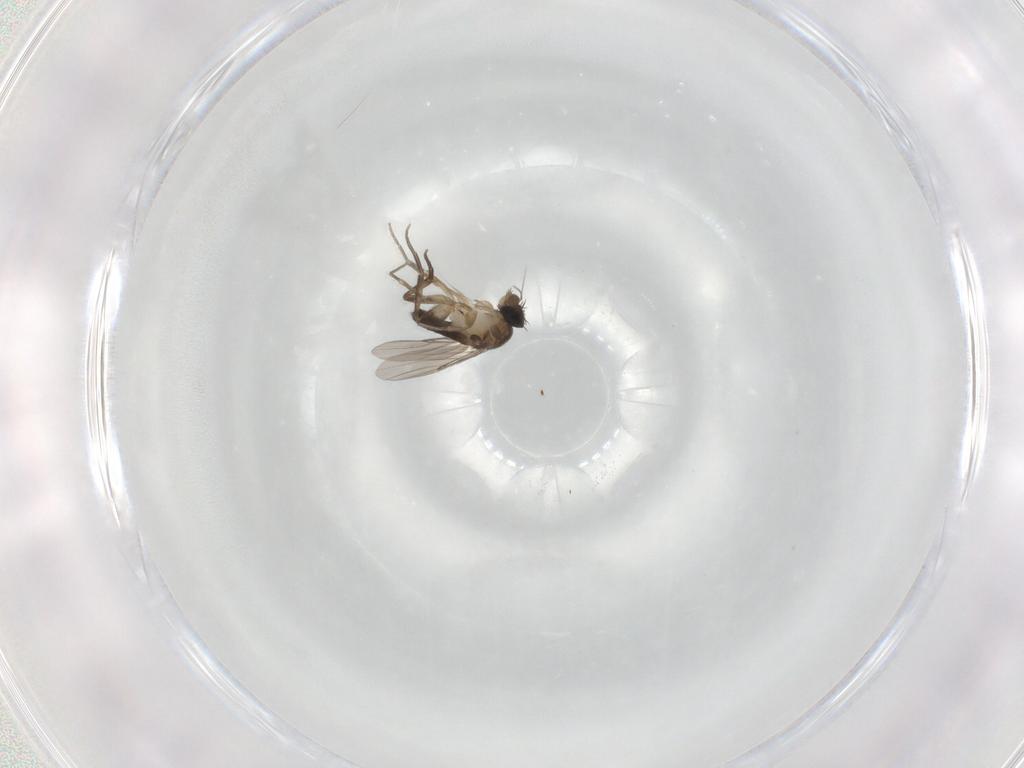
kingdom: Animalia
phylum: Arthropoda
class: Insecta
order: Diptera
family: Phoridae
